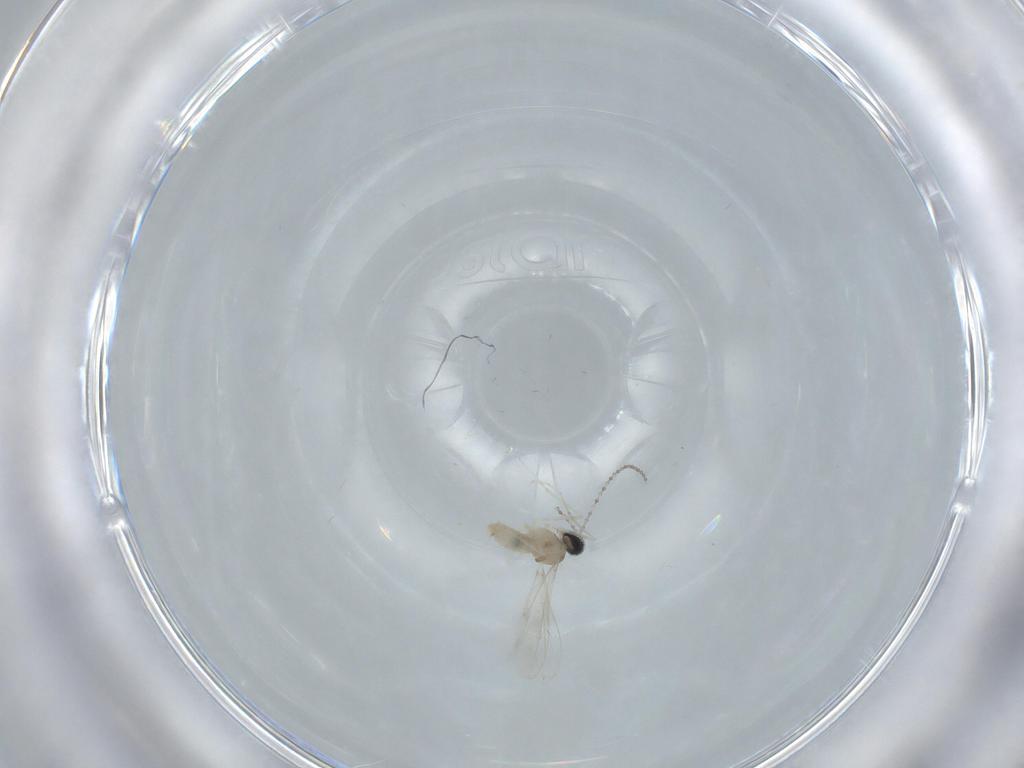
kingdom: Animalia
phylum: Arthropoda
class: Insecta
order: Diptera
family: Cecidomyiidae
